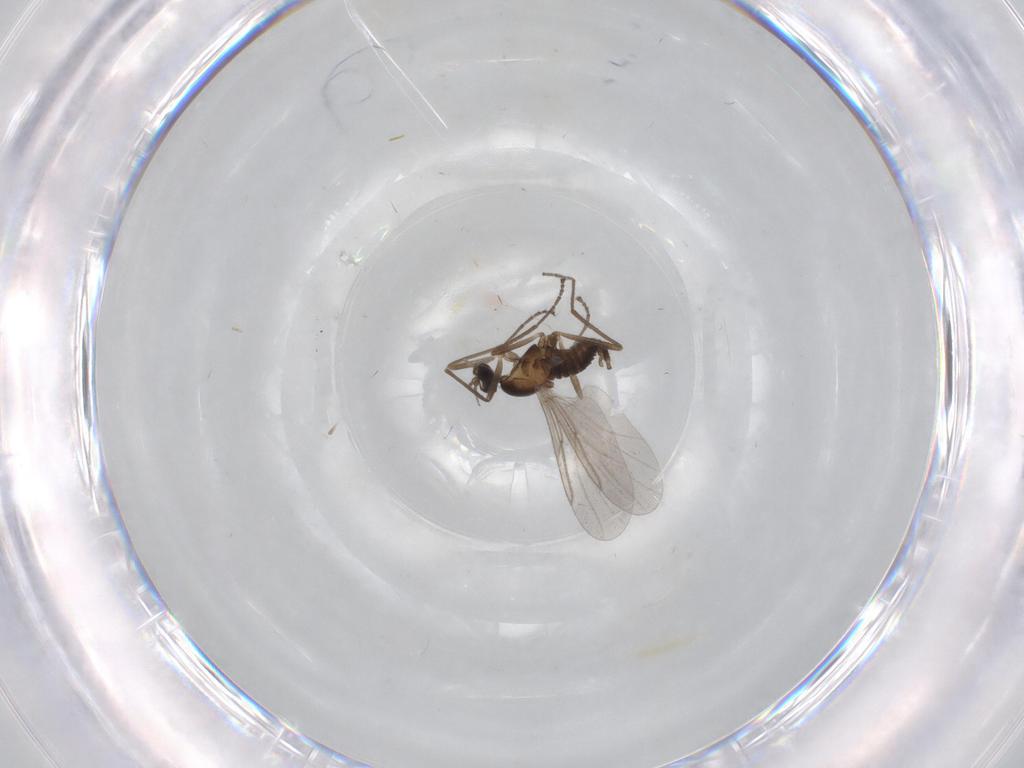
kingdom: Animalia
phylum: Arthropoda
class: Insecta
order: Diptera
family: Cecidomyiidae
